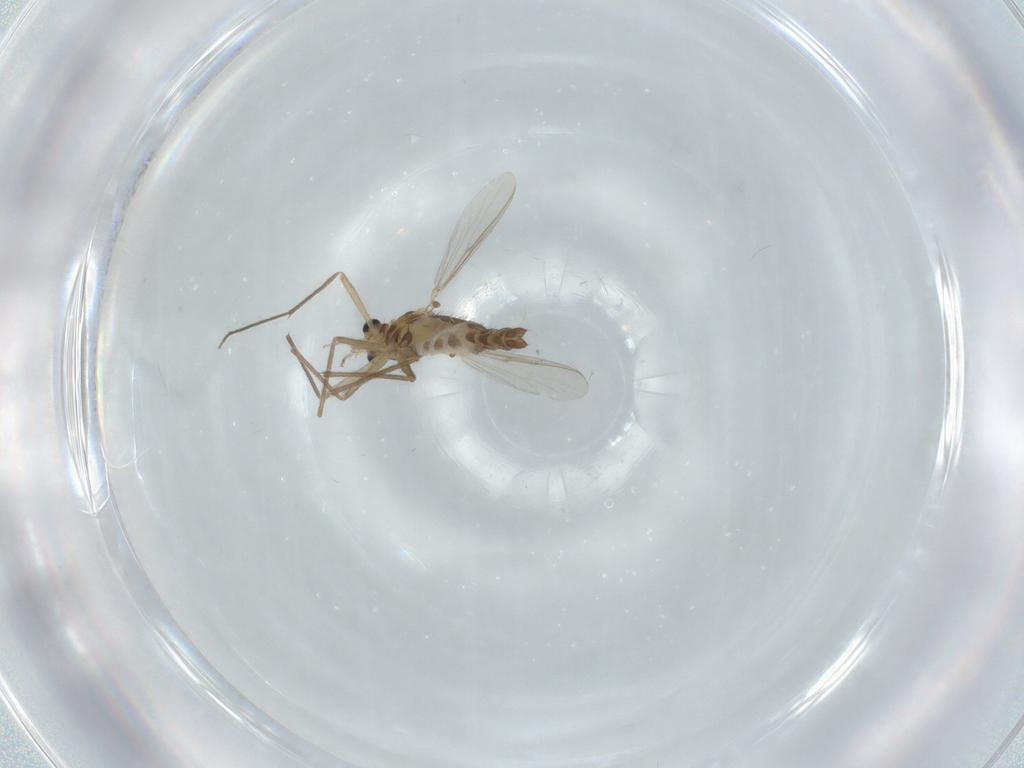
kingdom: Animalia
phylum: Arthropoda
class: Insecta
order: Diptera
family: Chironomidae
